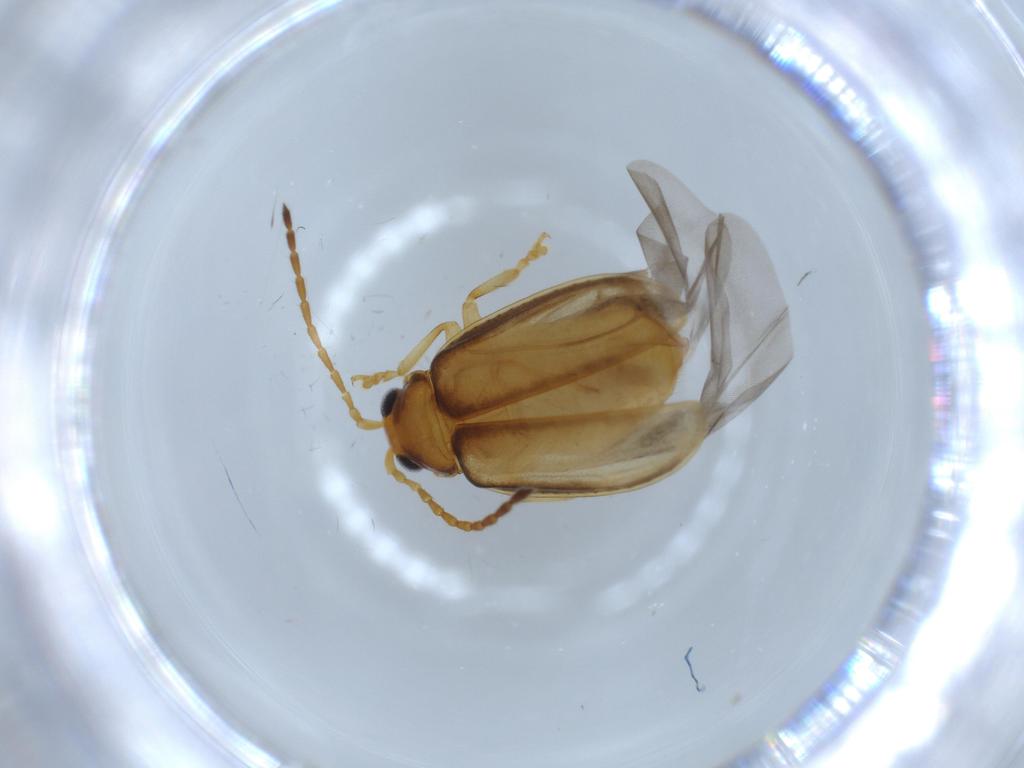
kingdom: Animalia
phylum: Arthropoda
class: Insecta
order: Coleoptera
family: Chrysomelidae
